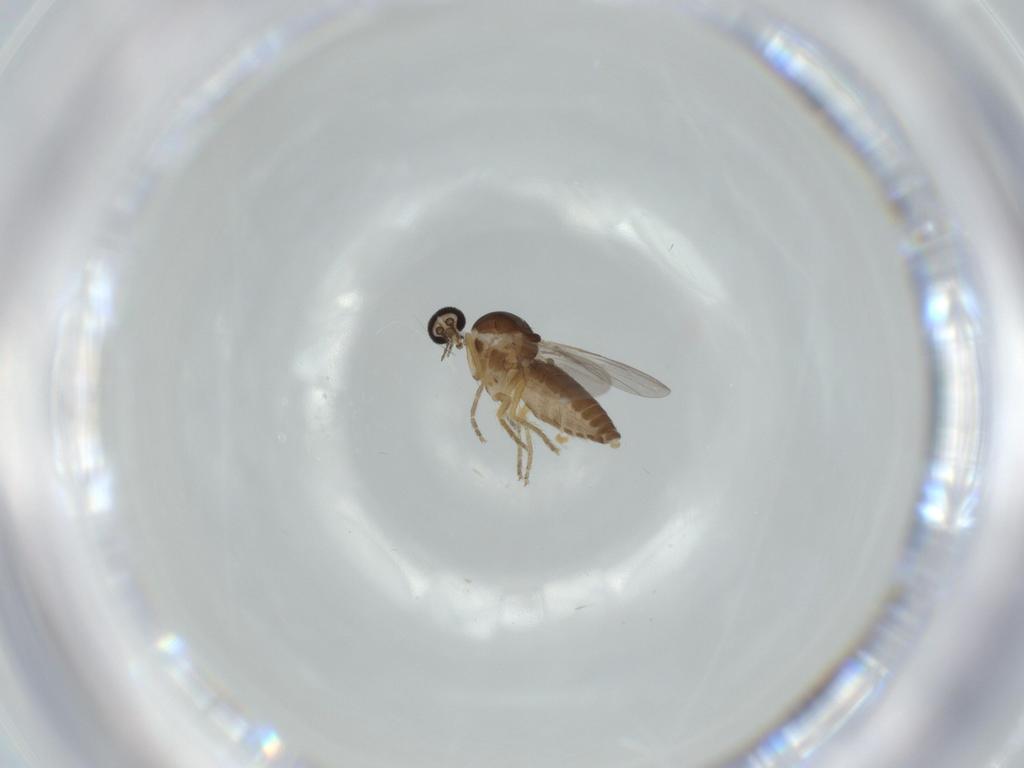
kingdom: Animalia
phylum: Arthropoda
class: Insecta
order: Diptera
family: Ceratopogonidae
